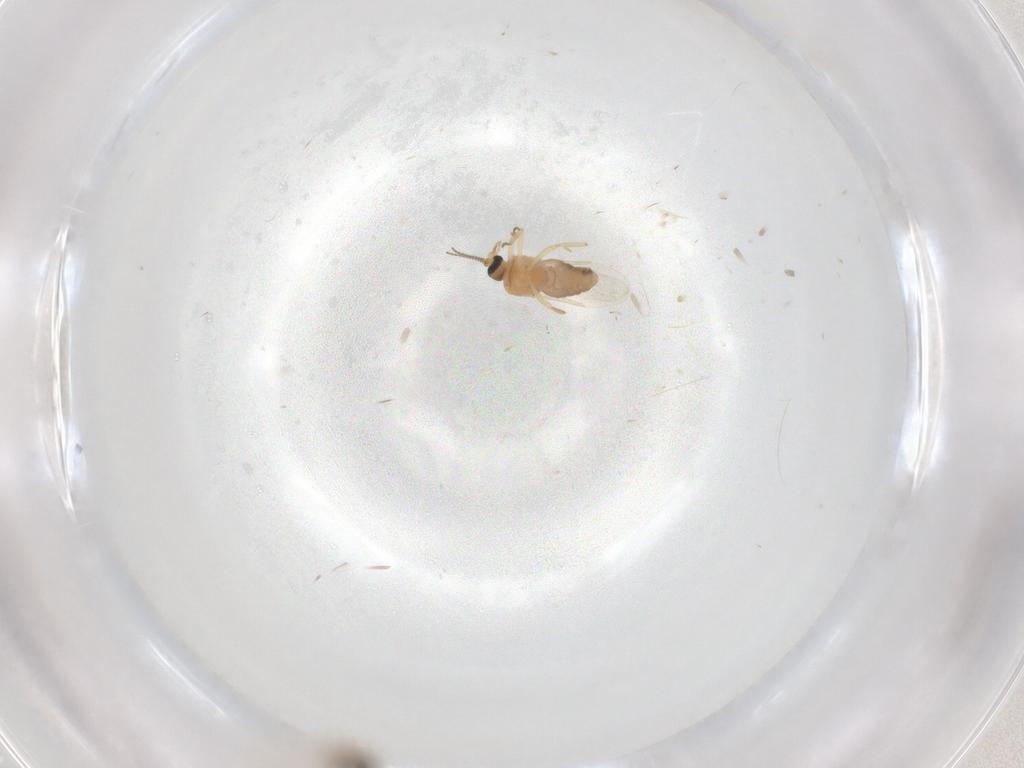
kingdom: Animalia
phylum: Arthropoda
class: Insecta
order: Diptera
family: Psychodidae
